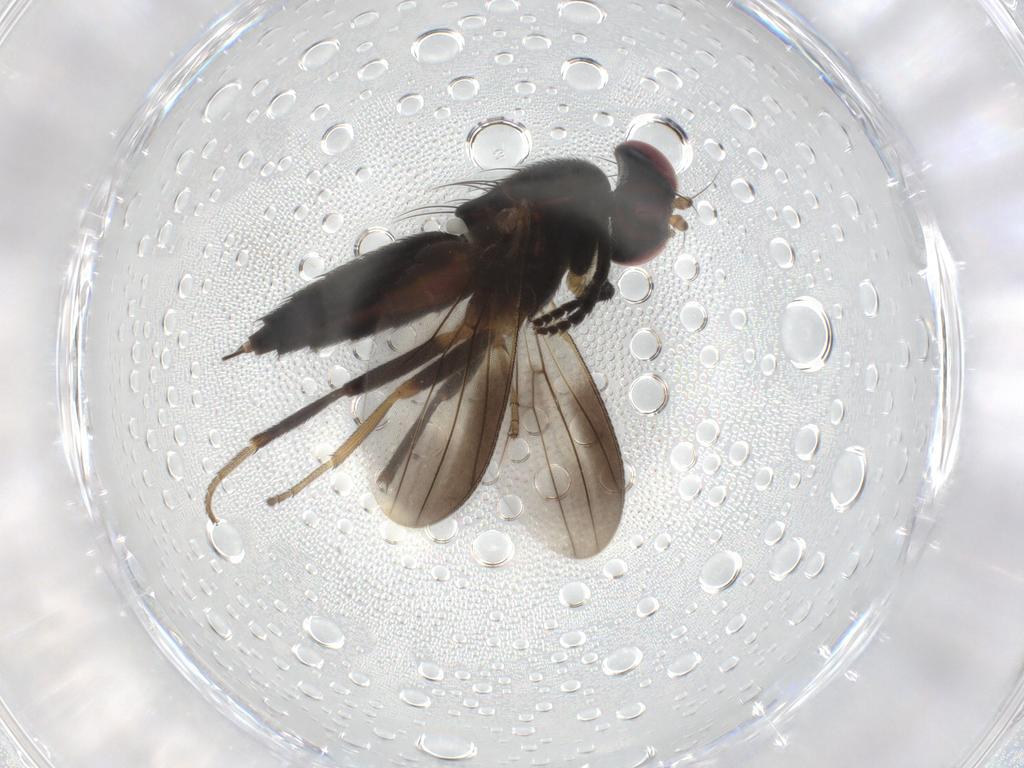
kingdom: Animalia
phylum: Arthropoda
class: Insecta
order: Diptera
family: Clusiidae
